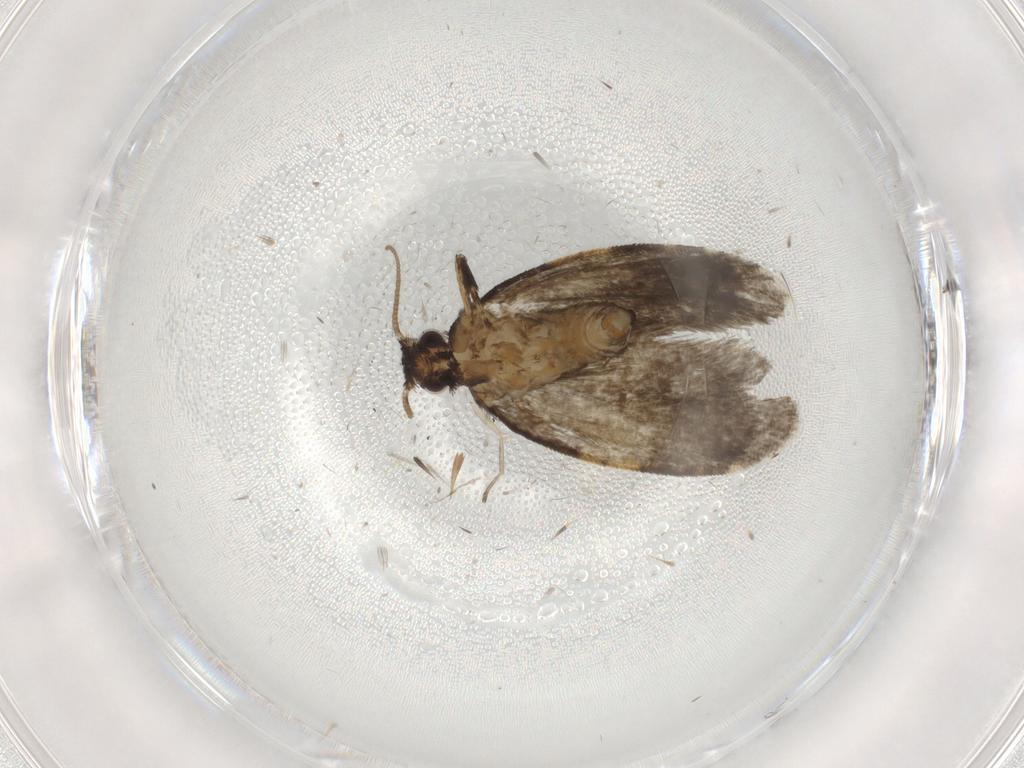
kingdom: Animalia
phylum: Arthropoda
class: Insecta
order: Lepidoptera
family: Psychidae
